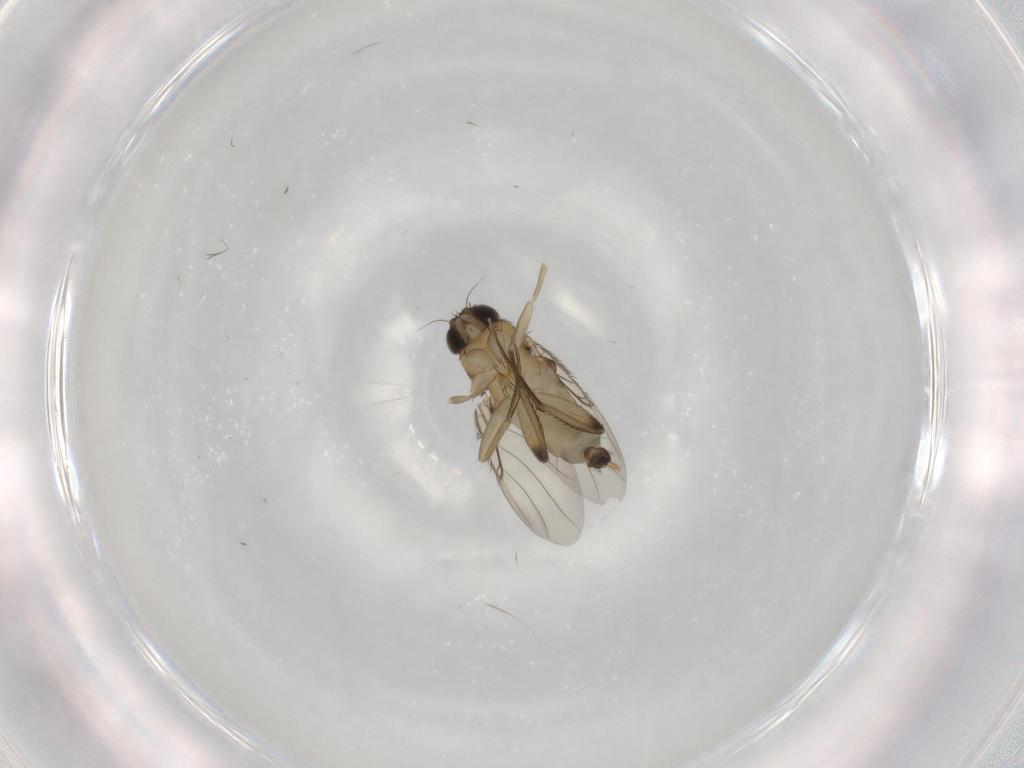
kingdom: Animalia
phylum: Arthropoda
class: Insecta
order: Diptera
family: Phoridae
